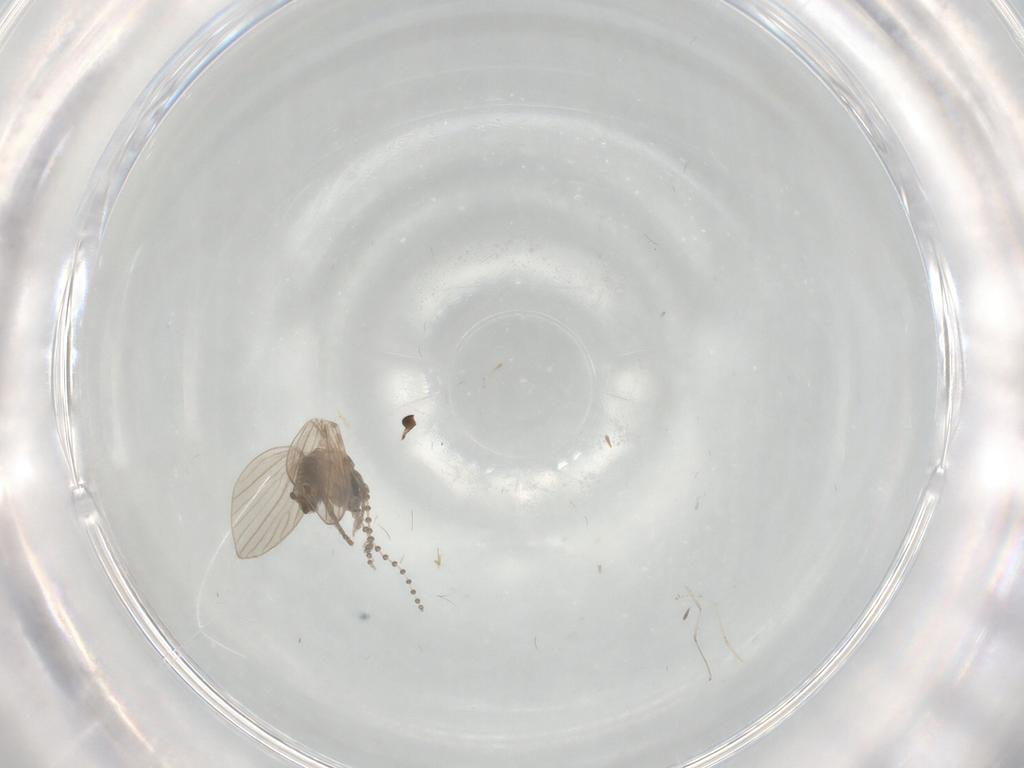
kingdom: Animalia
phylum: Arthropoda
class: Insecta
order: Diptera
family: Psychodidae
